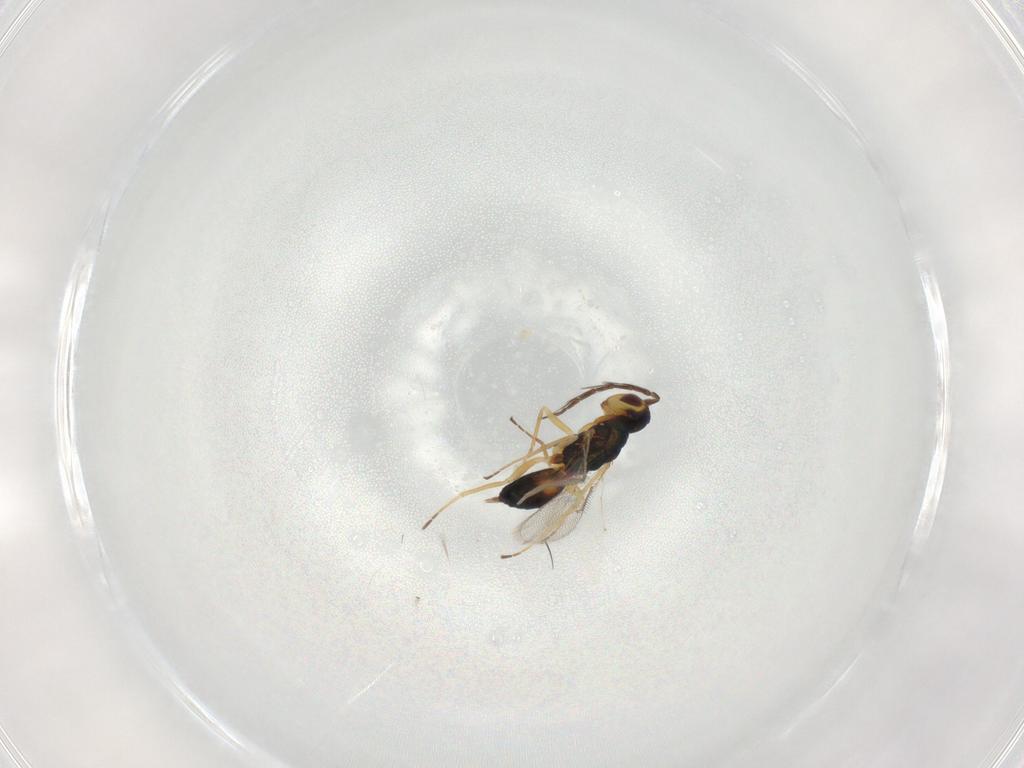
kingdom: Animalia
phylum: Arthropoda
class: Insecta
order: Hymenoptera
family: Eulophidae
